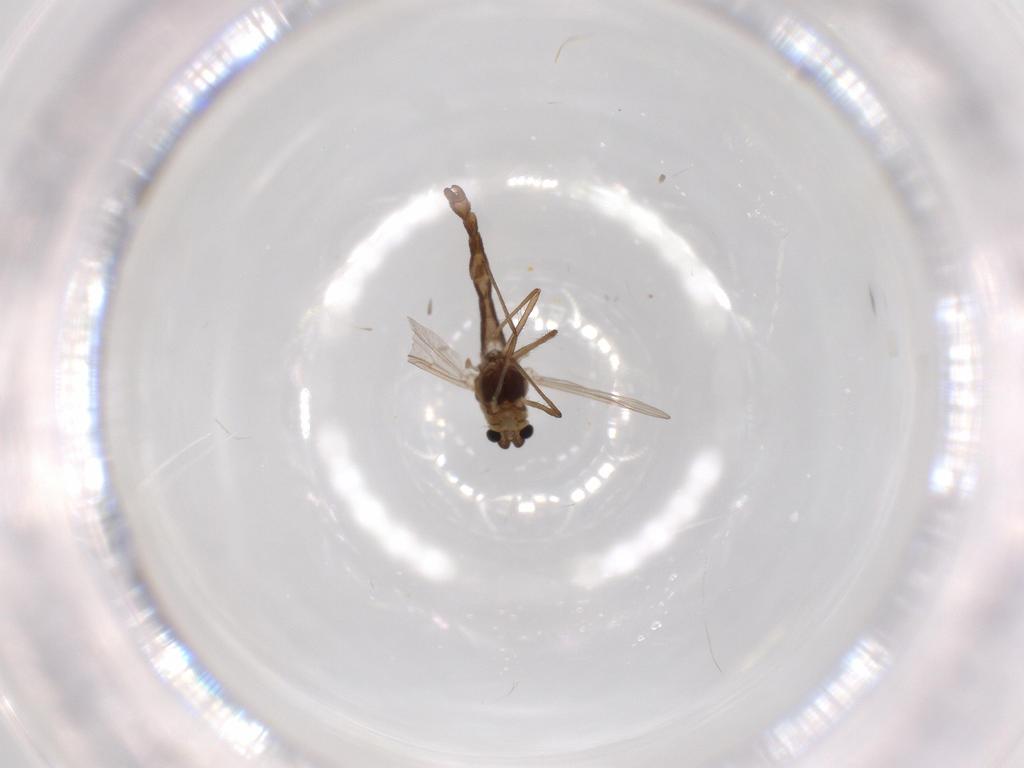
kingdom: Animalia
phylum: Arthropoda
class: Insecta
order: Diptera
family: Chironomidae
